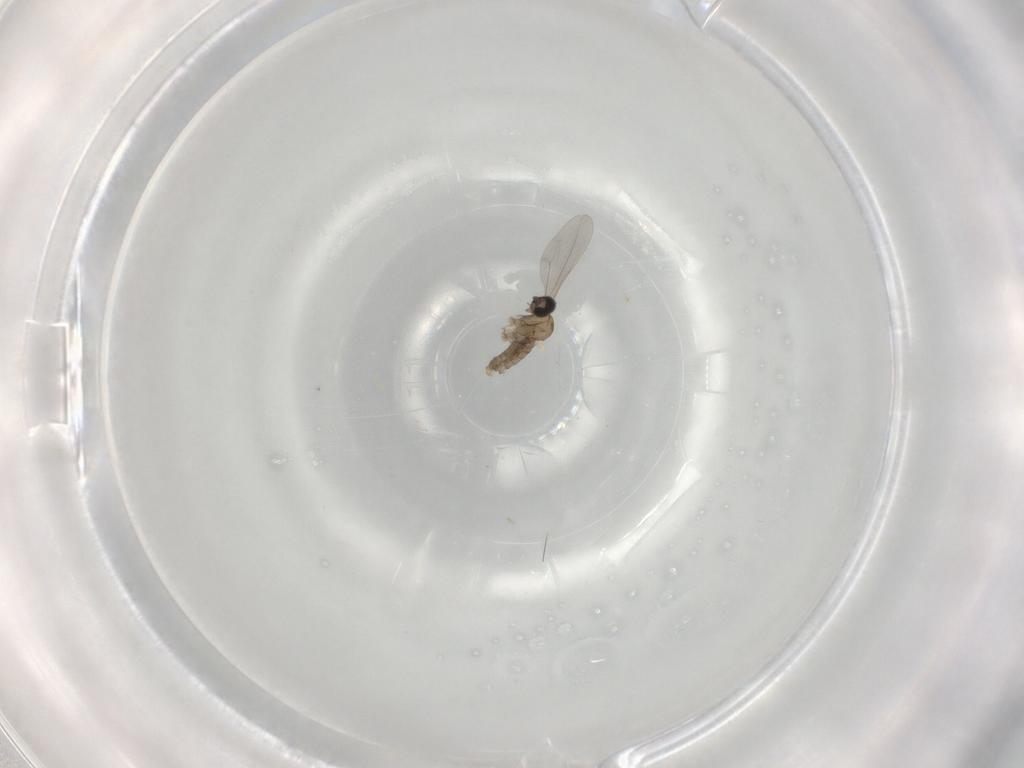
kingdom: Animalia
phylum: Arthropoda
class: Insecta
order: Diptera
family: Cecidomyiidae
